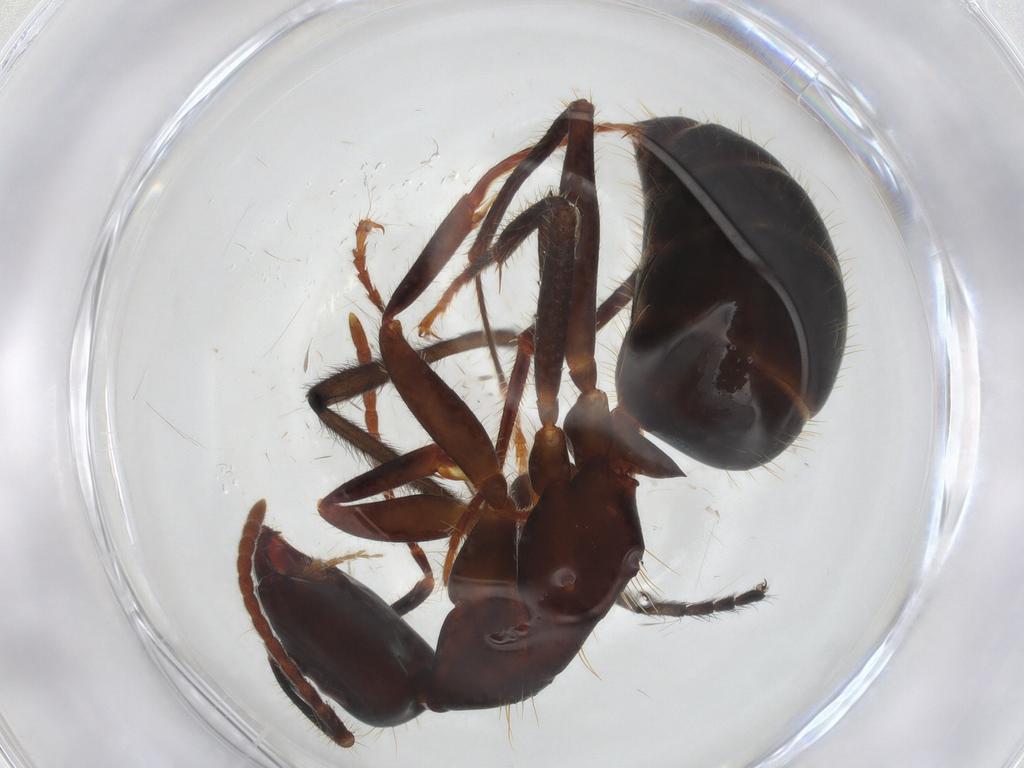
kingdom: Animalia
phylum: Arthropoda
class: Insecta
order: Hymenoptera
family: Formicidae
